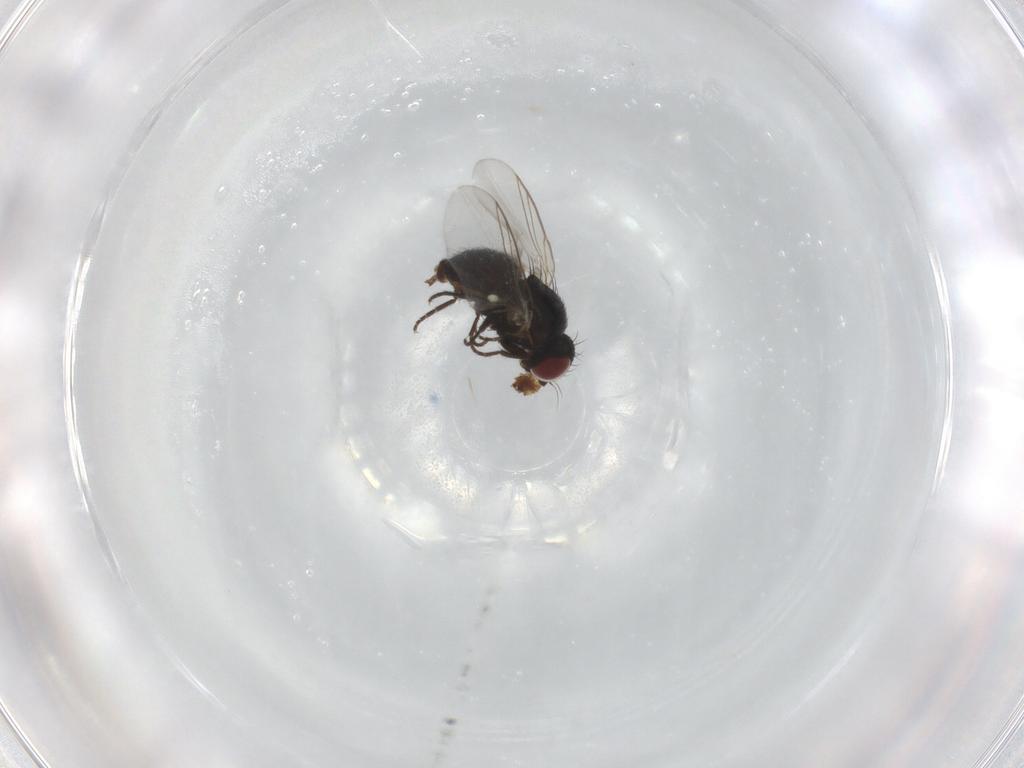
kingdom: Animalia
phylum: Arthropoda
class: Insecta
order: Diptera
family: Agromyzidae
